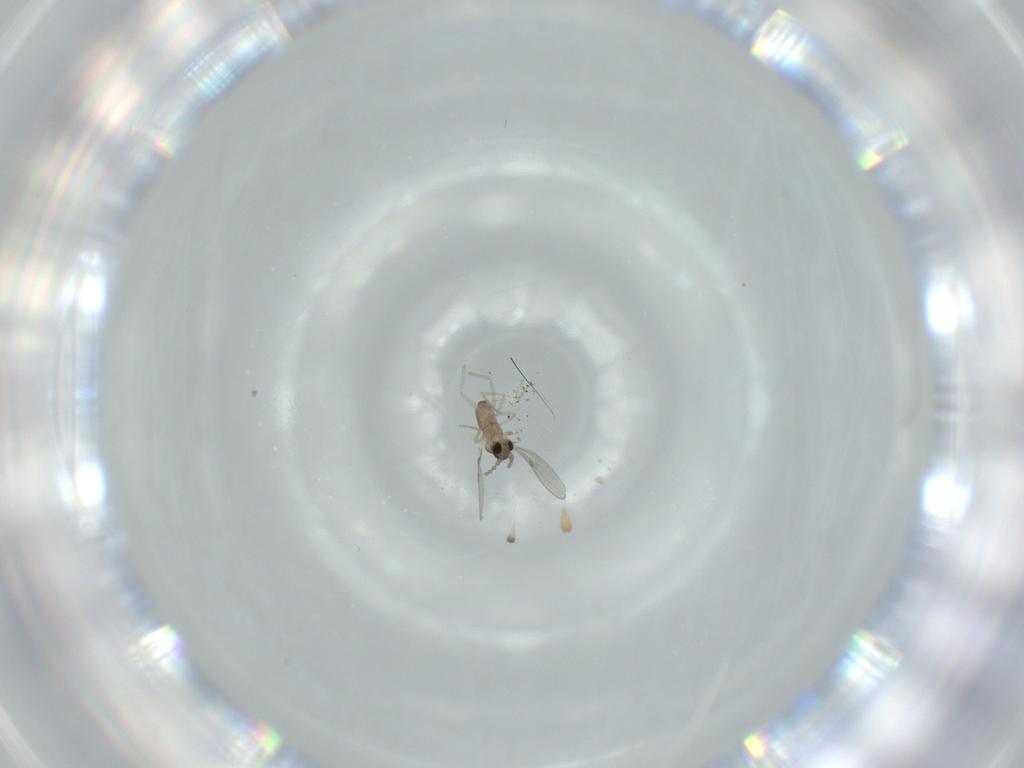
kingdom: Animalia
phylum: Arthropoda
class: Insecta
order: Diptera
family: Cecidomyiidae
